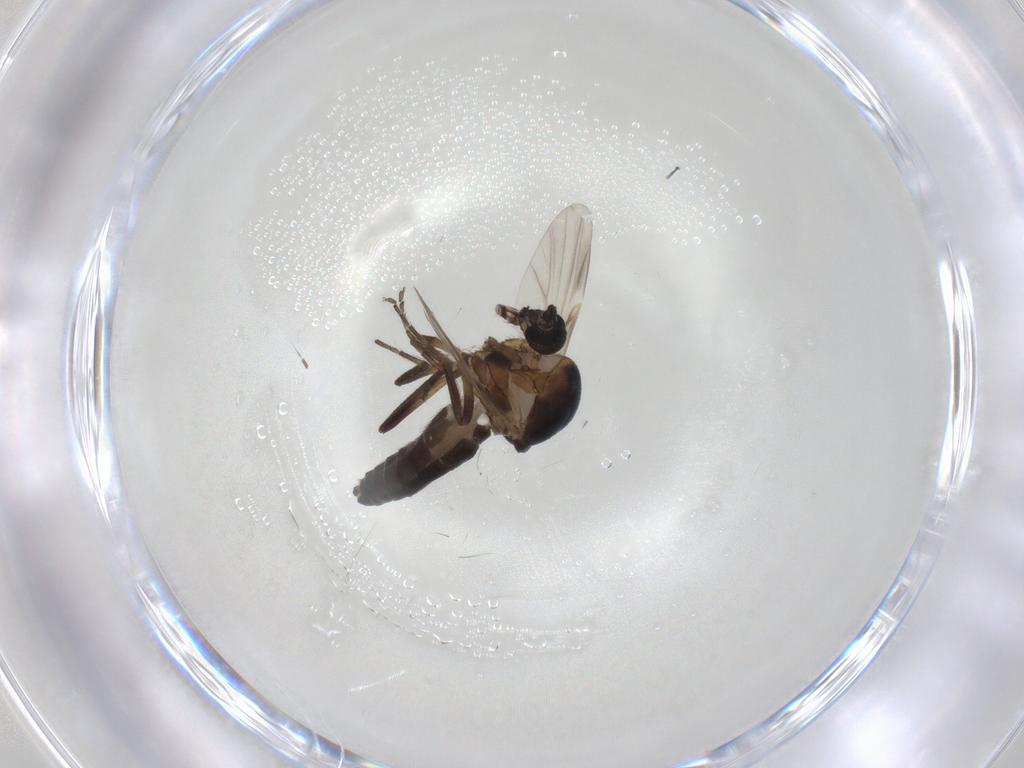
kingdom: Animalia
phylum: Arthropoda
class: Insecta
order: Diptera
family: Ceratopogonidae
